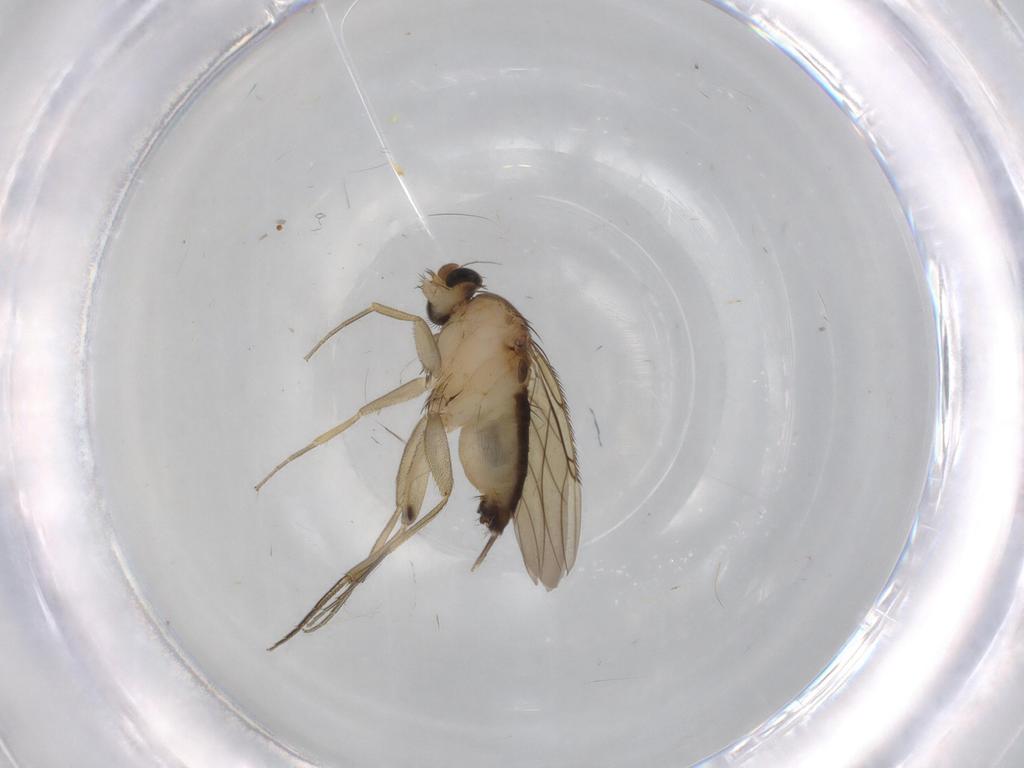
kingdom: Animalia
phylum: Arthropoda
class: Insecta
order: Diptera
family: Phoridae
